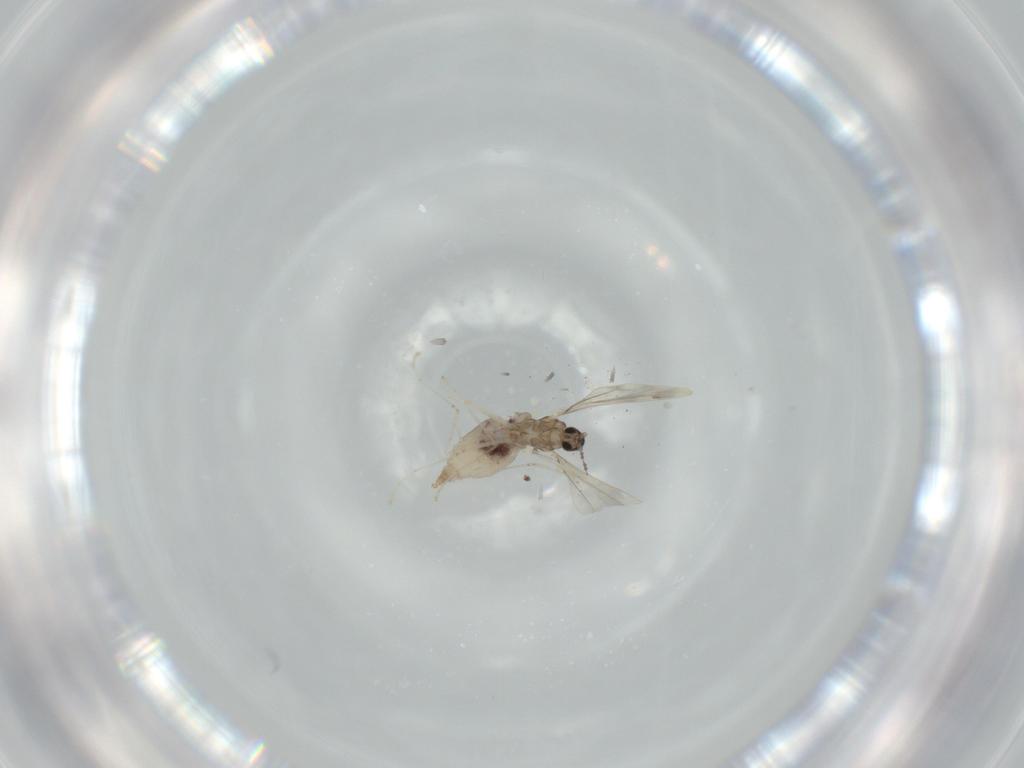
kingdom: Animalia
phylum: Arthropoda
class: Insecta
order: Diptera
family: Cecidomyiidae
